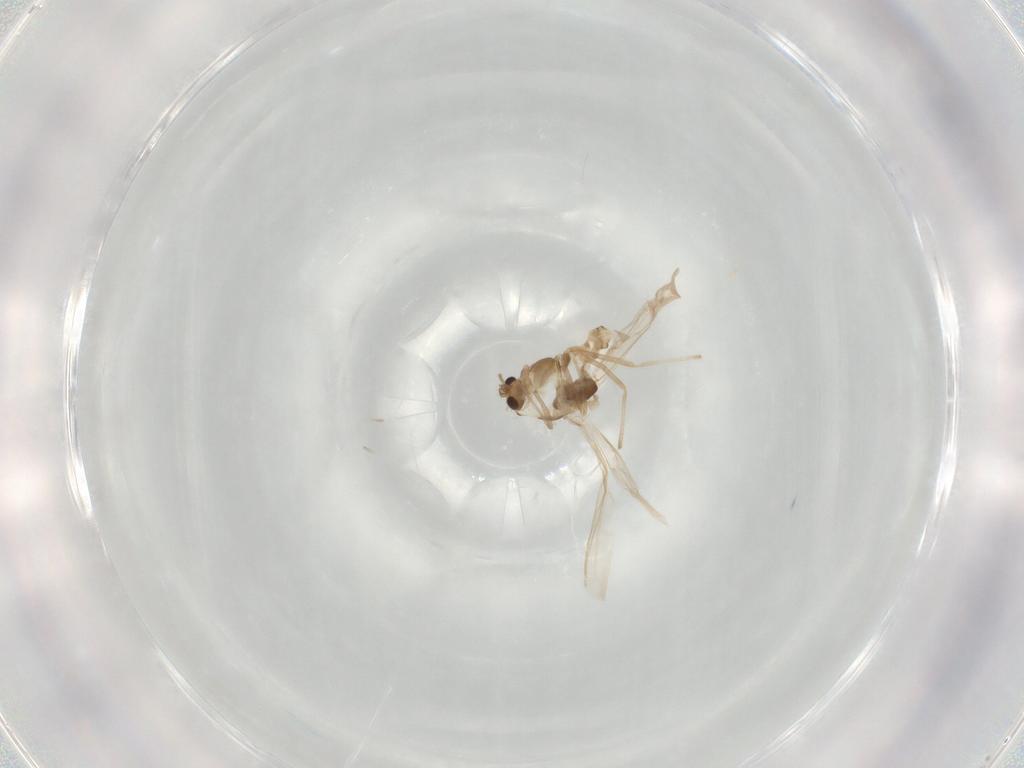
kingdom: Animalia
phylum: Arthropoda
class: Insecta
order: Diptera
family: Chironomidae
